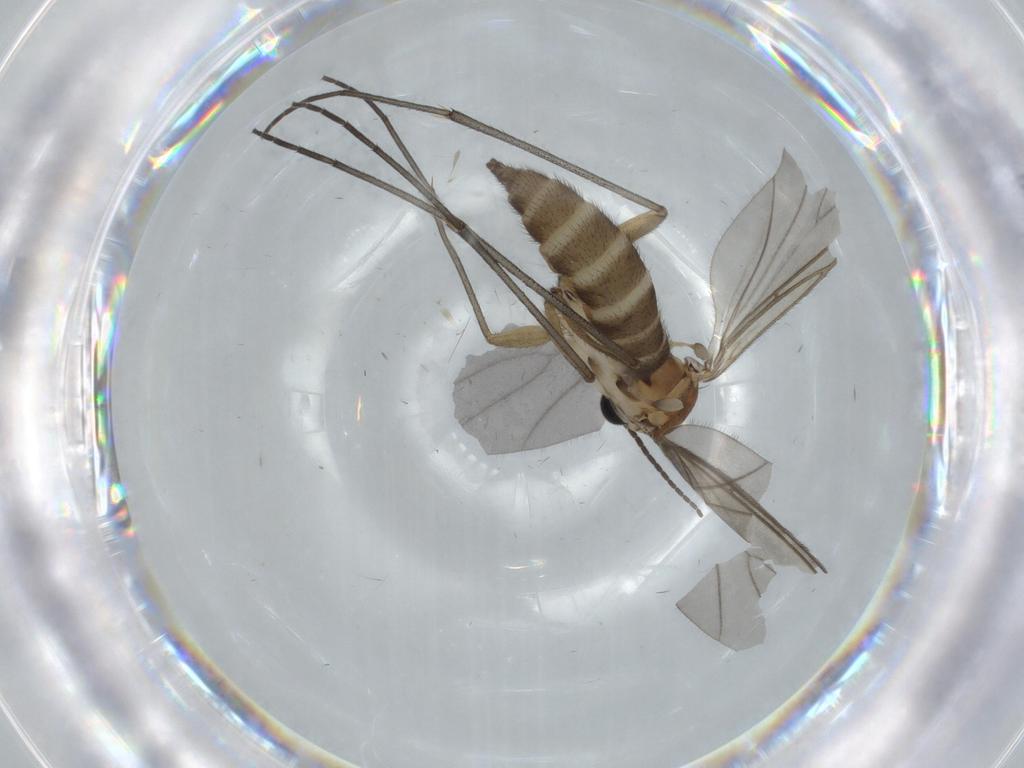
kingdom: Animalia
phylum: Arthropoda
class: Insecta
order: Diptera
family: Sciaridae
